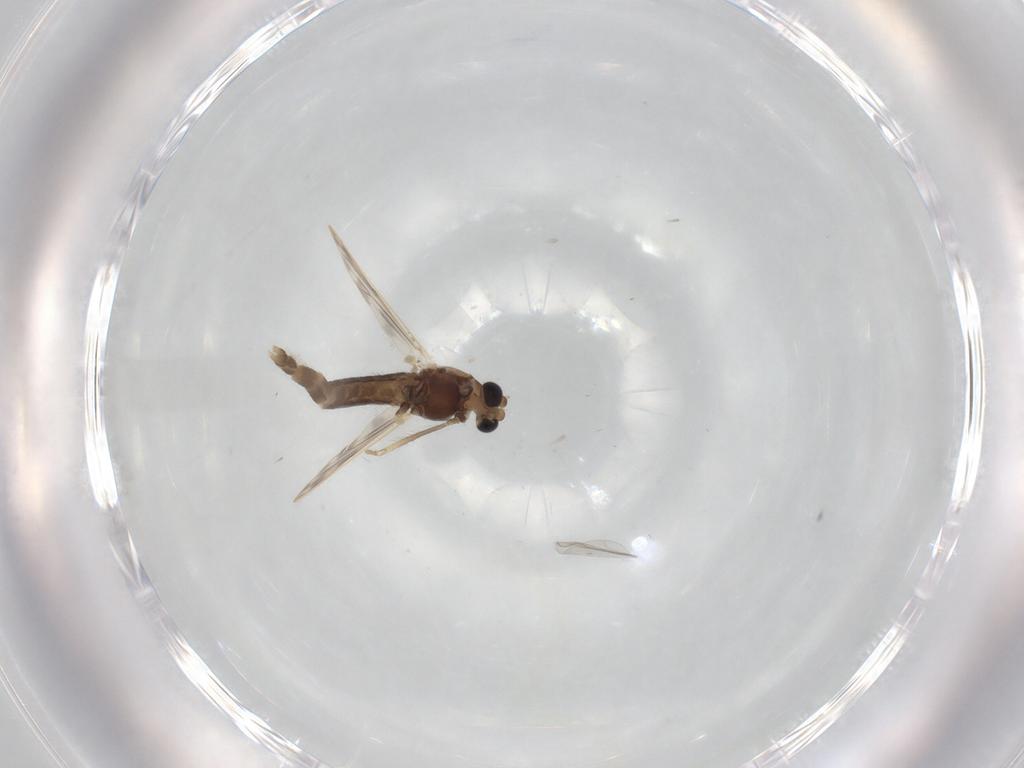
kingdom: Animalia
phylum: Arthropoda
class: Insecta
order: Diptera
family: Chironomidae
